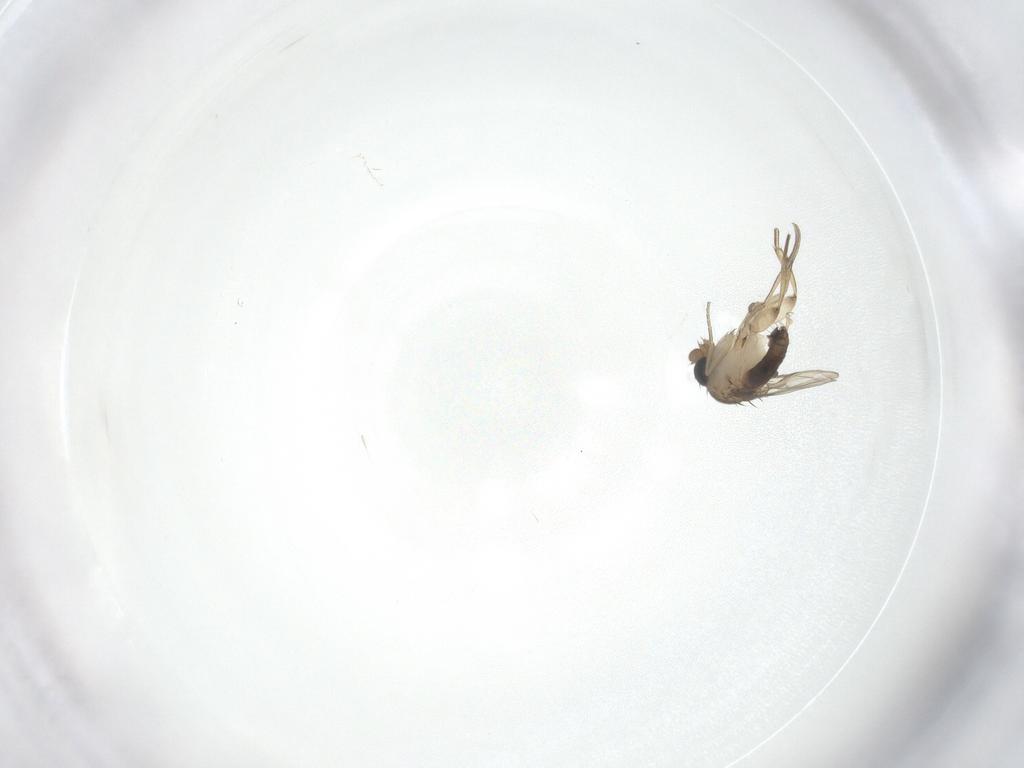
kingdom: Animalia
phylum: Arthropoda
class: Insecta
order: Diptera
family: Phoridae
